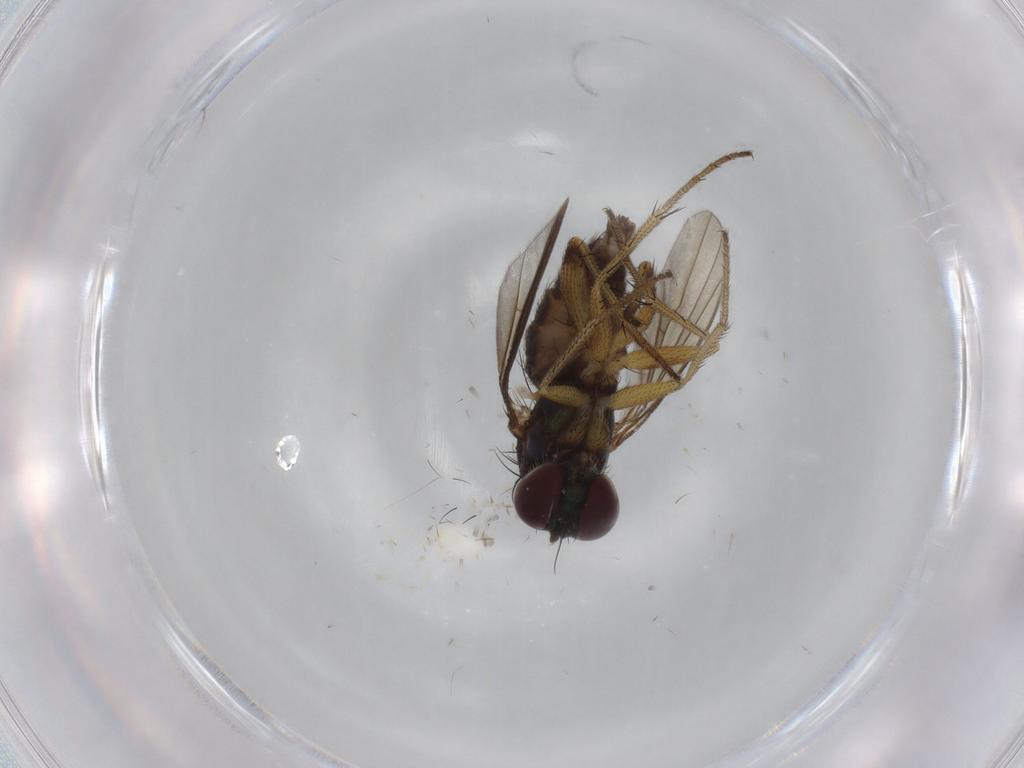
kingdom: Animalia
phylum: Arthropoda
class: Insecta
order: Diptera
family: Dolichopodidae
